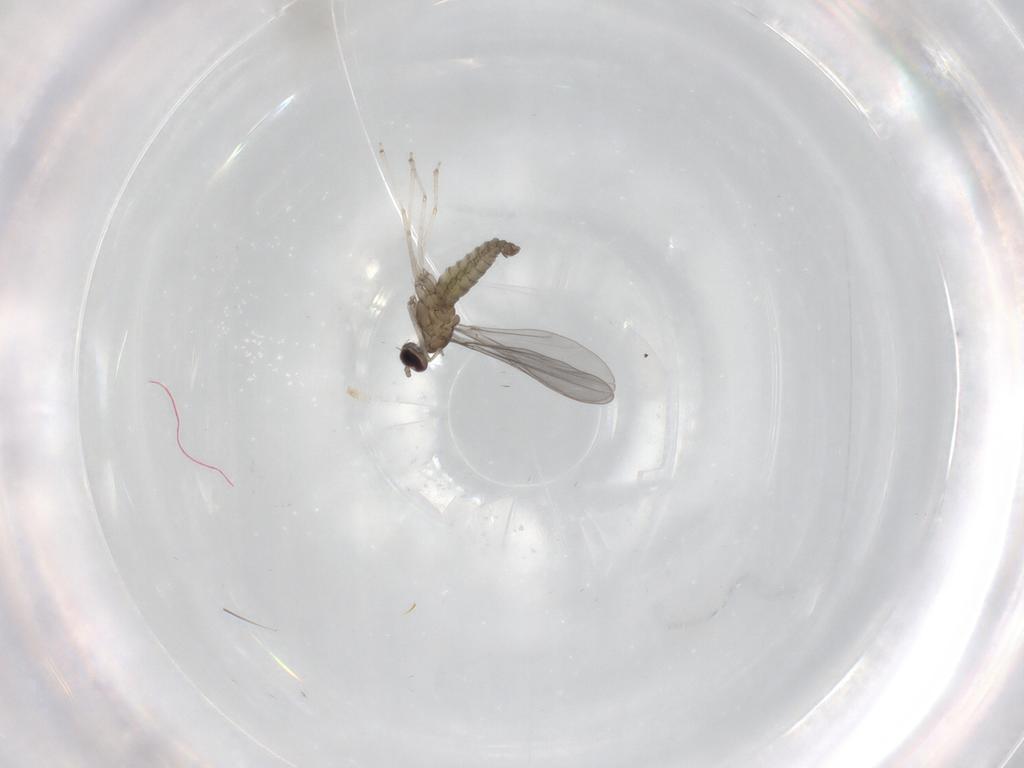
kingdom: Animalia
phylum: Arthropoda
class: Insecta
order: Diptera
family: Cecidomyiidae
